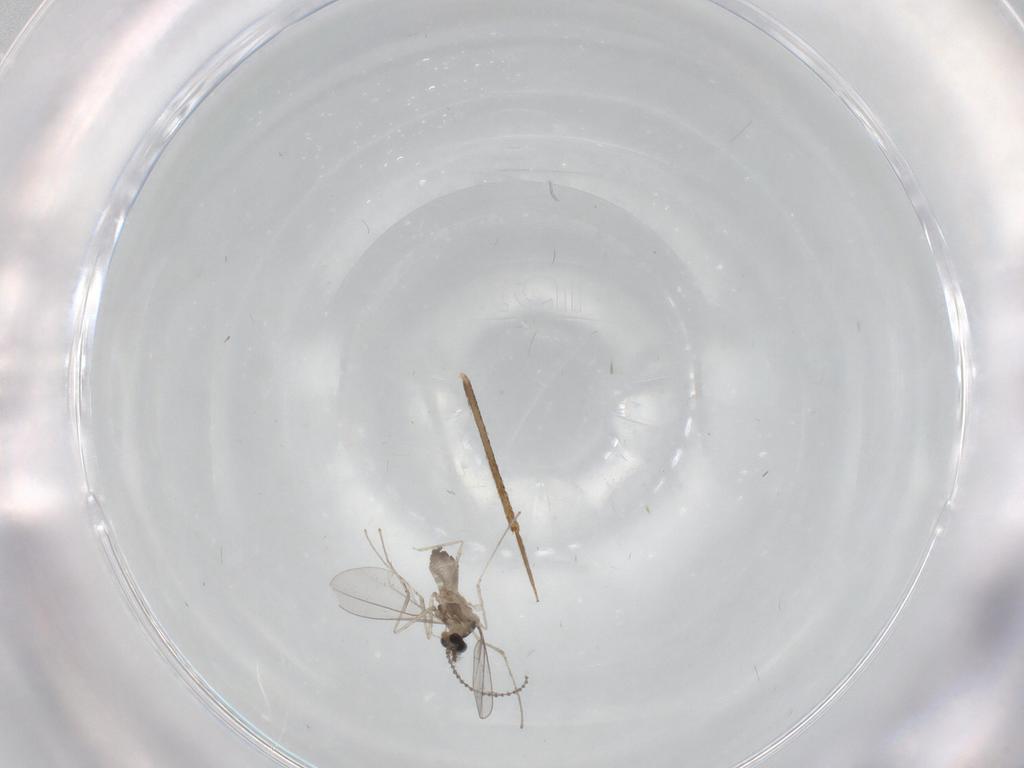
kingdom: Animalia
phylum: Arthropoda
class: Insecta
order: Diptera
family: Cecidomyiidae
